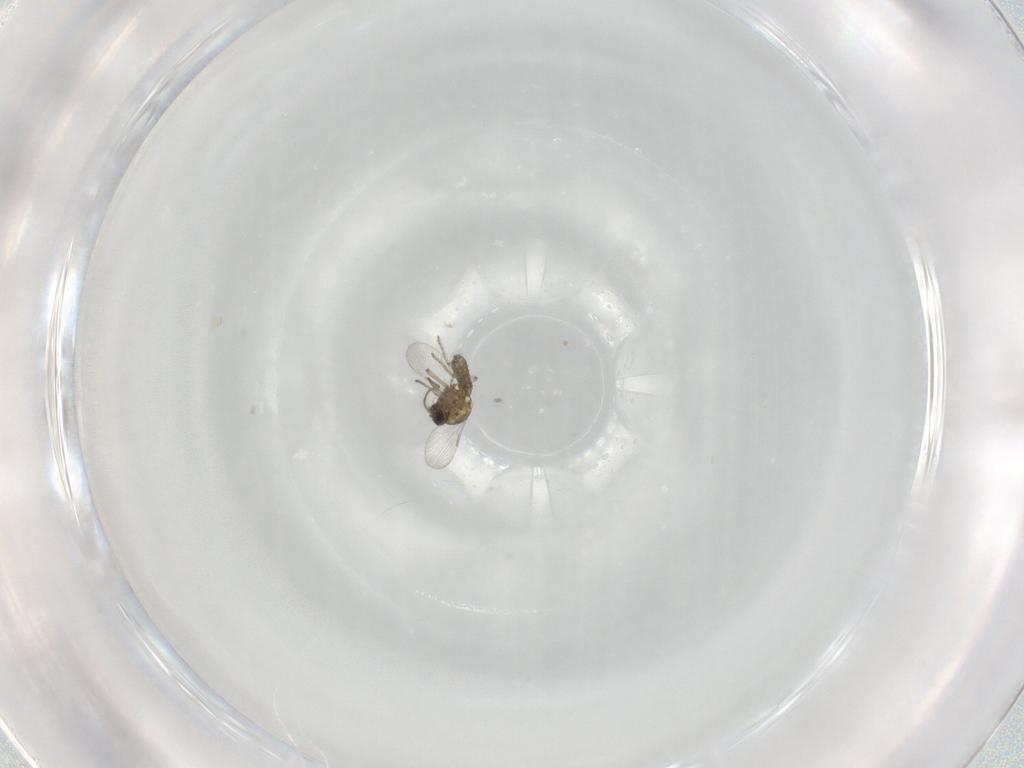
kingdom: Animalia
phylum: Arthropoda
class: Insecta
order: Diptera
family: Ceratopogonidae
